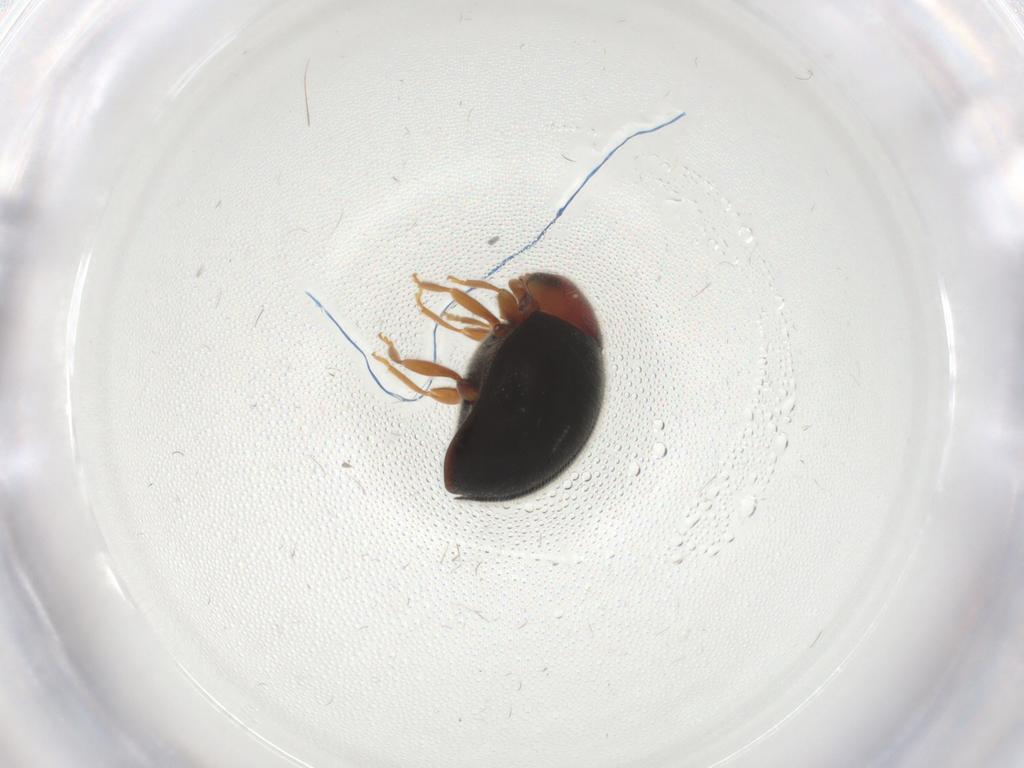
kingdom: Animalia
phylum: Arthropoda
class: Insecta
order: Coleoptera
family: Coccinellidae
